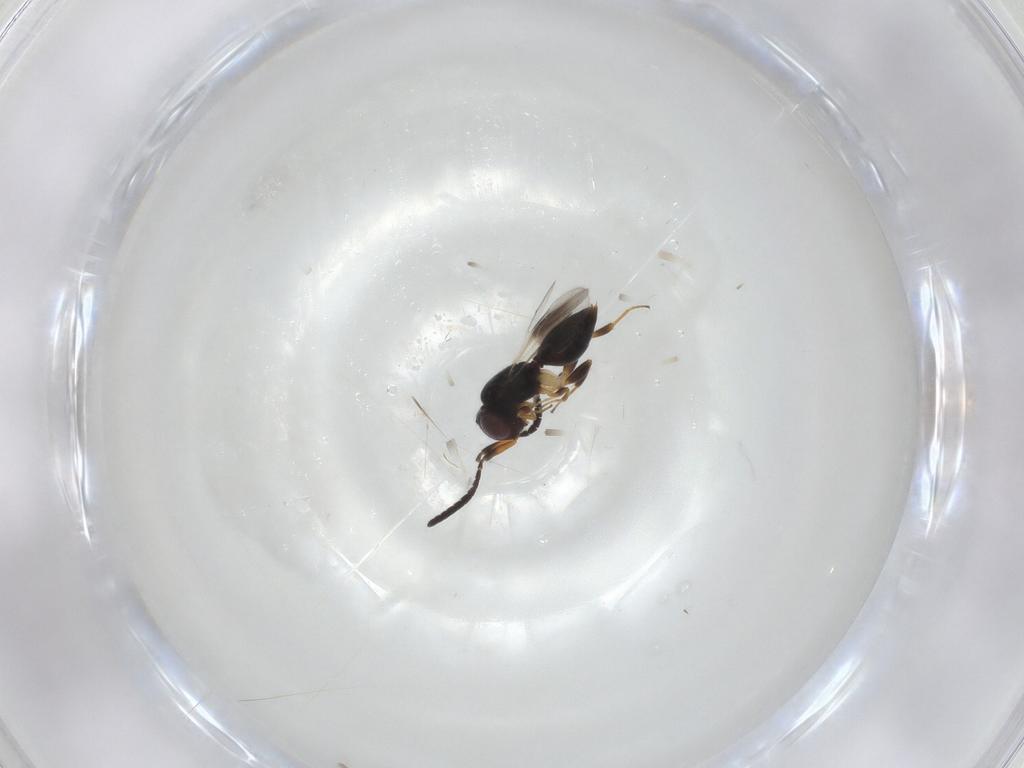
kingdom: Animalia
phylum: Arthropoda
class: Insecta
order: Hymenoptera
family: Megaspilidae
